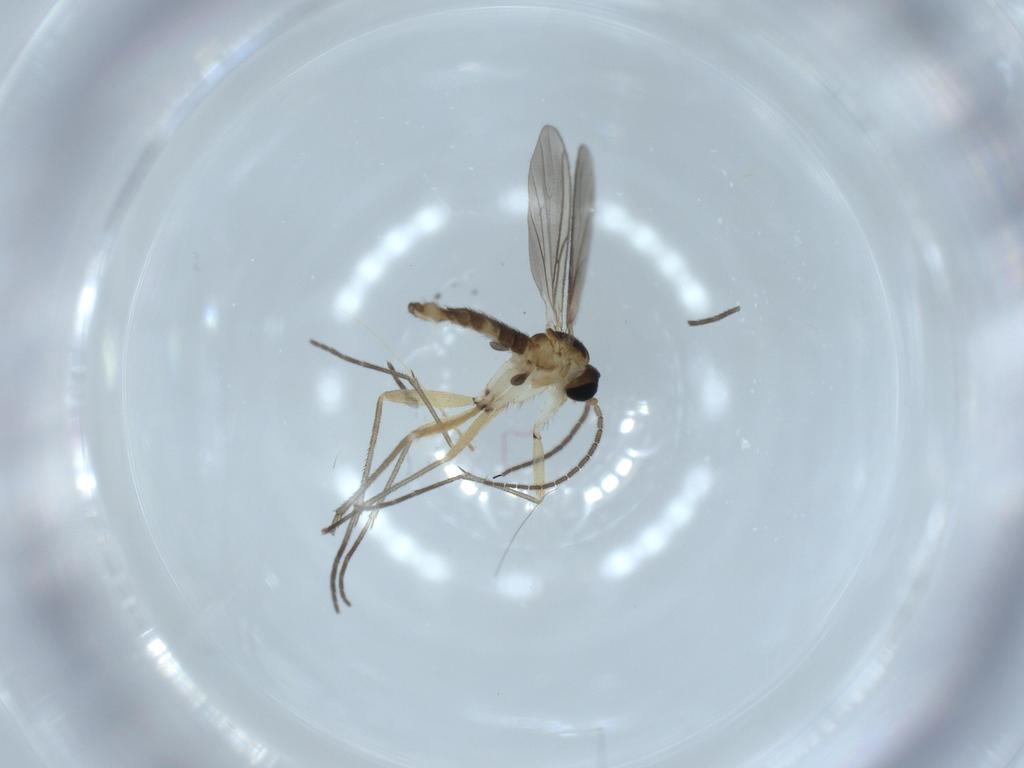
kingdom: Animalia
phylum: Arthropoda
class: Insecta
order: Diptera
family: Sciaridae
